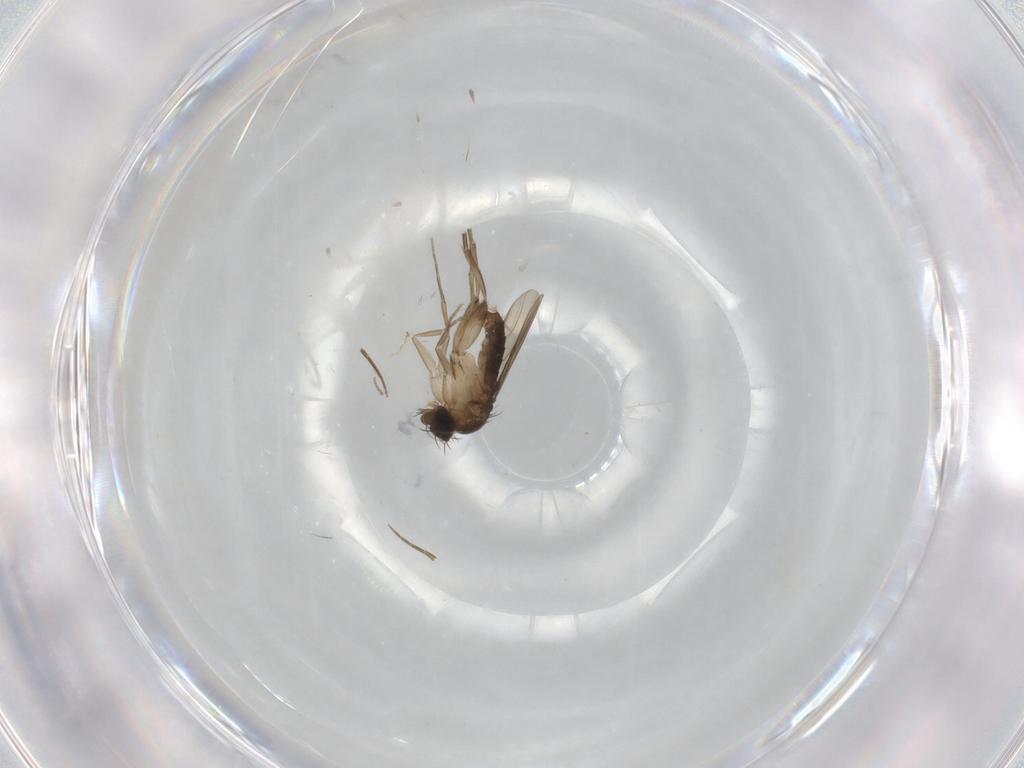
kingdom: Animalia
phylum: Arthropoda
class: Insecta
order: Diptera
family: Phoridae
